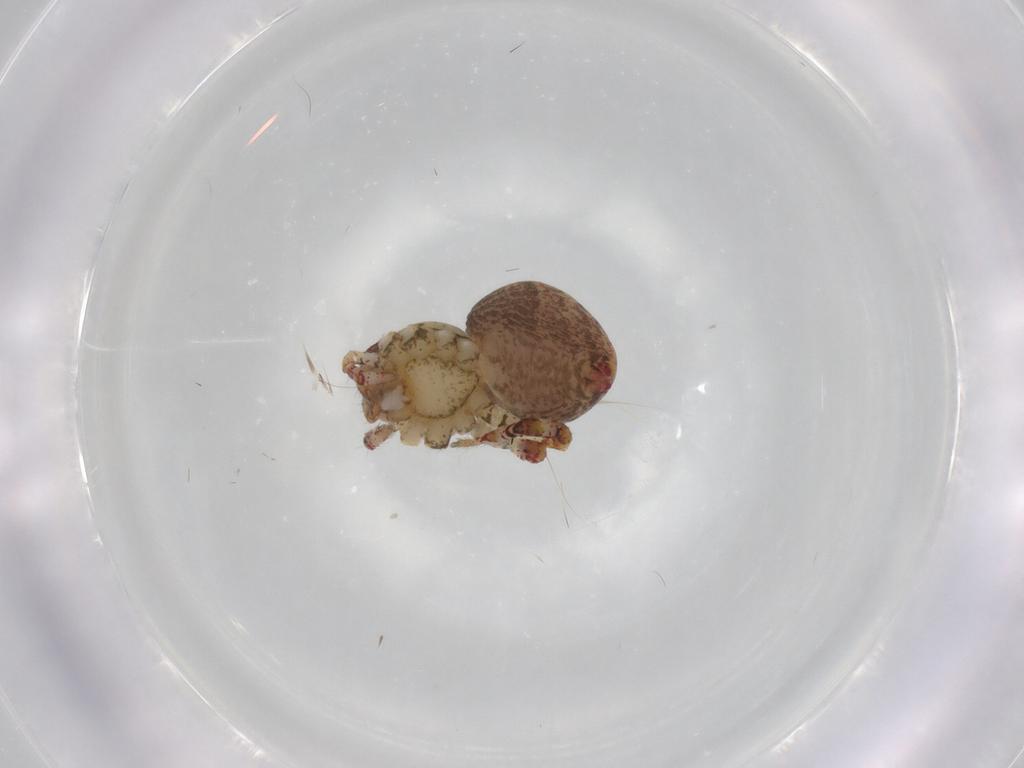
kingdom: Animalia
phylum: Arthropoda
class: Arachnida
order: Araneae
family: Thomisidae
